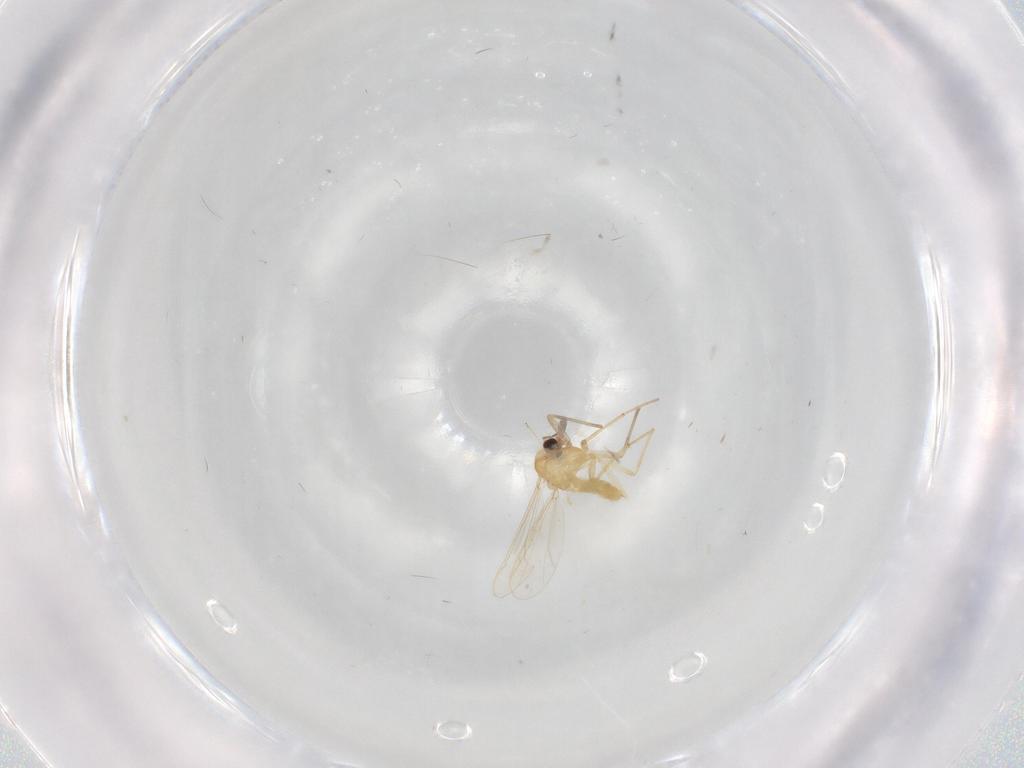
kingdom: Animalia
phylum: Arthropoda
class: Insecta
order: Diptera
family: Chironomidae
